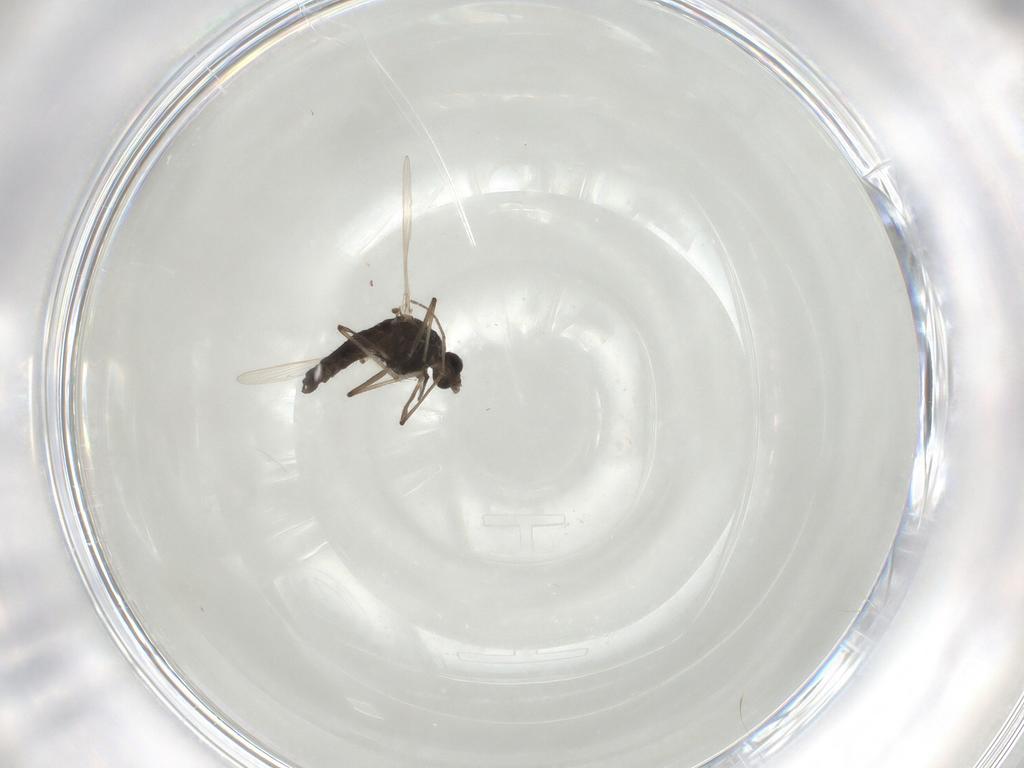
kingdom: Animalia
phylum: Arthropoda
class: Insecta
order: Diptera
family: Chironomidae
